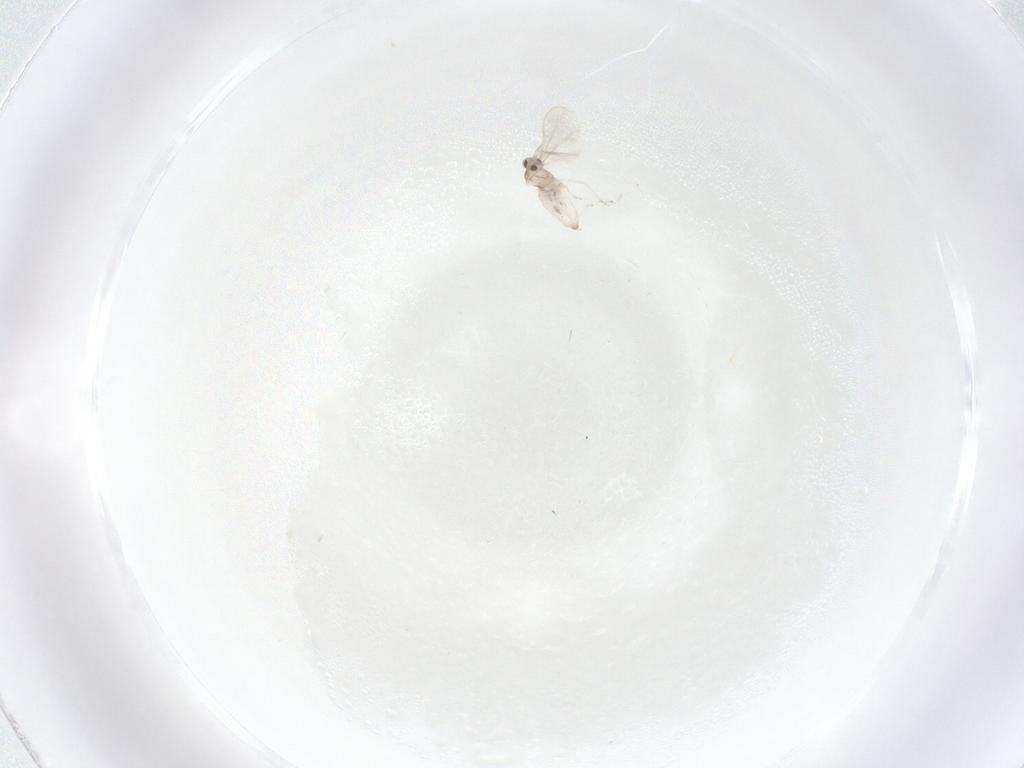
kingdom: Animalia
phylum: Arthropoda
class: Insecta
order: Diptera
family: Cecidomyiidae
